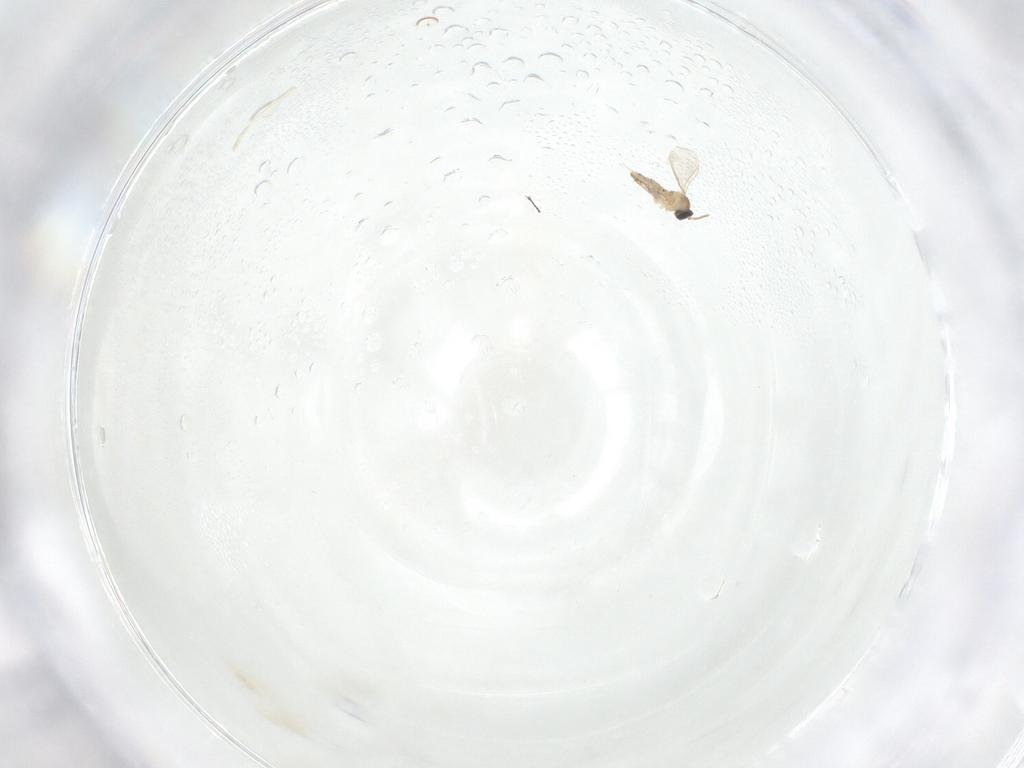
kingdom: Animalia
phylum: Arthropoda
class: Insecta
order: Diptera
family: Cecidomyiidae
